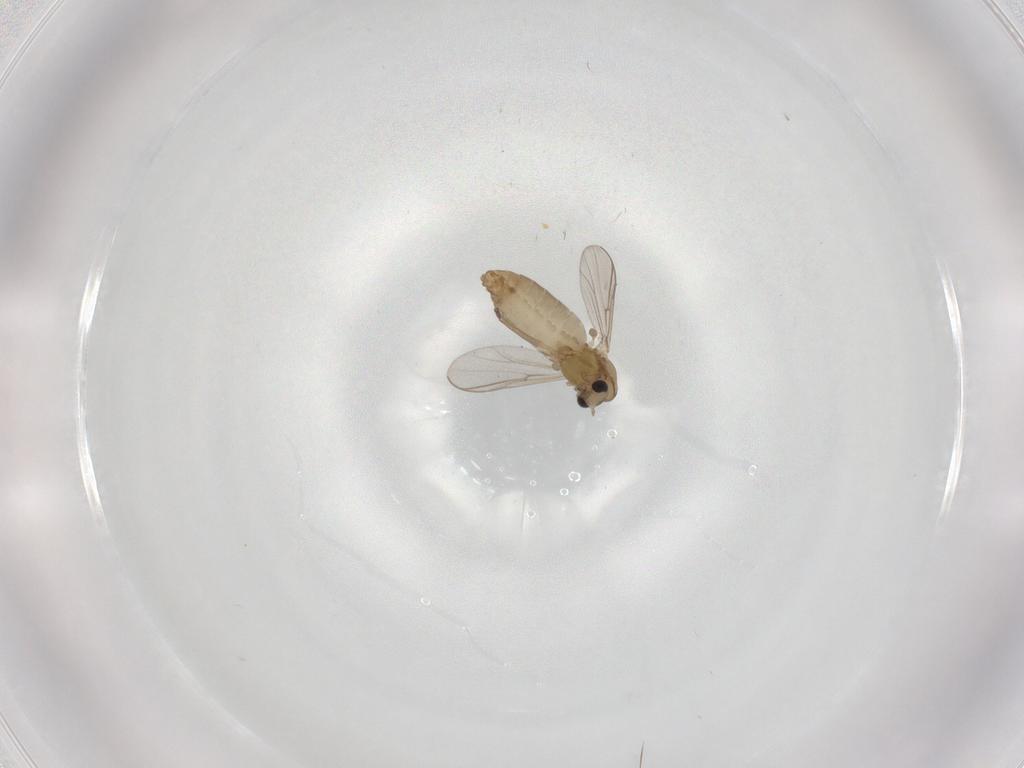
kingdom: Animalia
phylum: Arthropoda
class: Insecta
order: Diptera
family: Chironomidae
